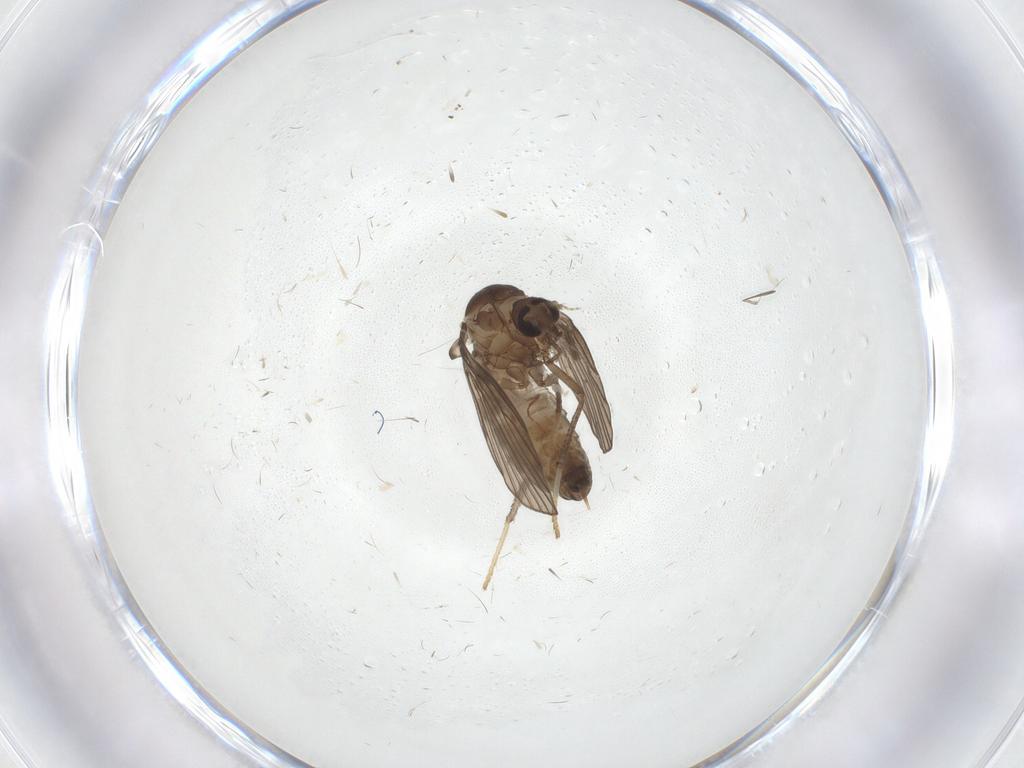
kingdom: Animalia
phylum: Arthropoda
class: Insecta
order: Diptera
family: Psychodidae
